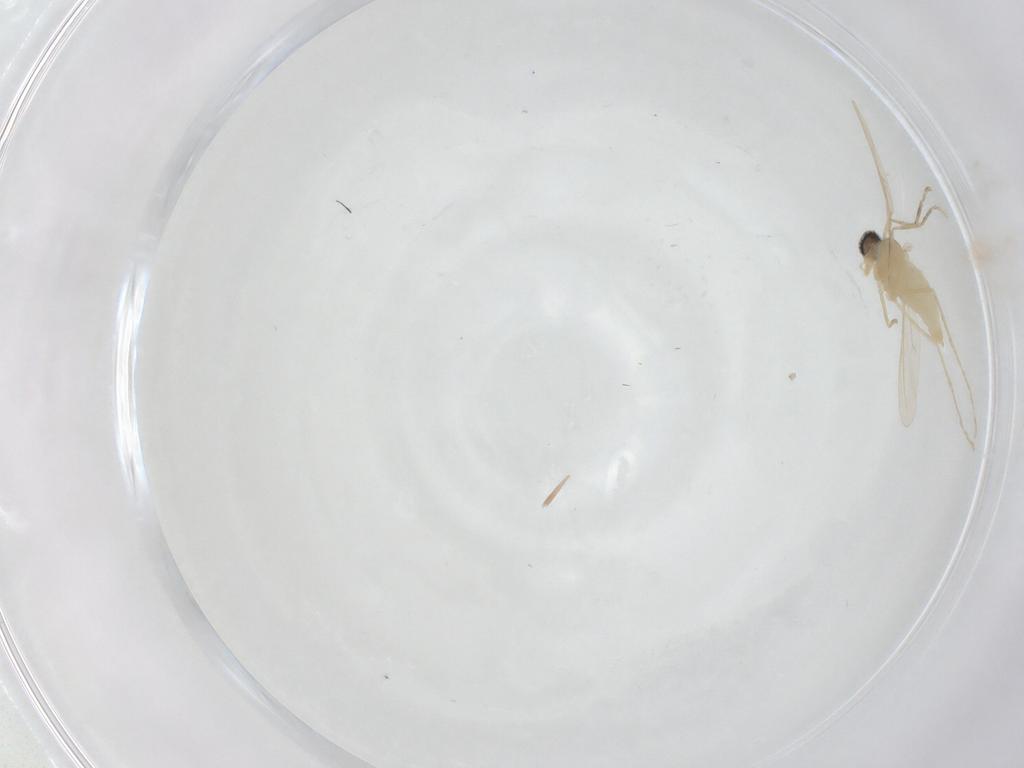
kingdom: Animalia
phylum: Arthropoda
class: Insecta
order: Diptera
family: Cecidomyiidae
